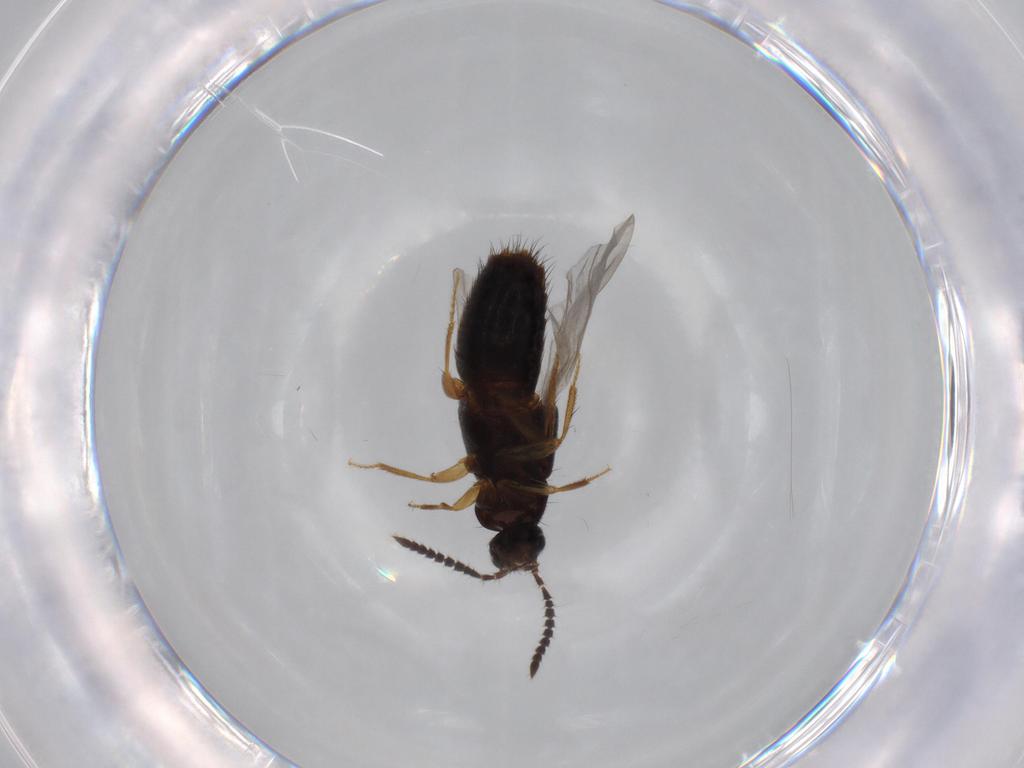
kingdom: Animalia
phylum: Arthropoda
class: Insecta
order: Coleoptera
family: Staphylinidae
